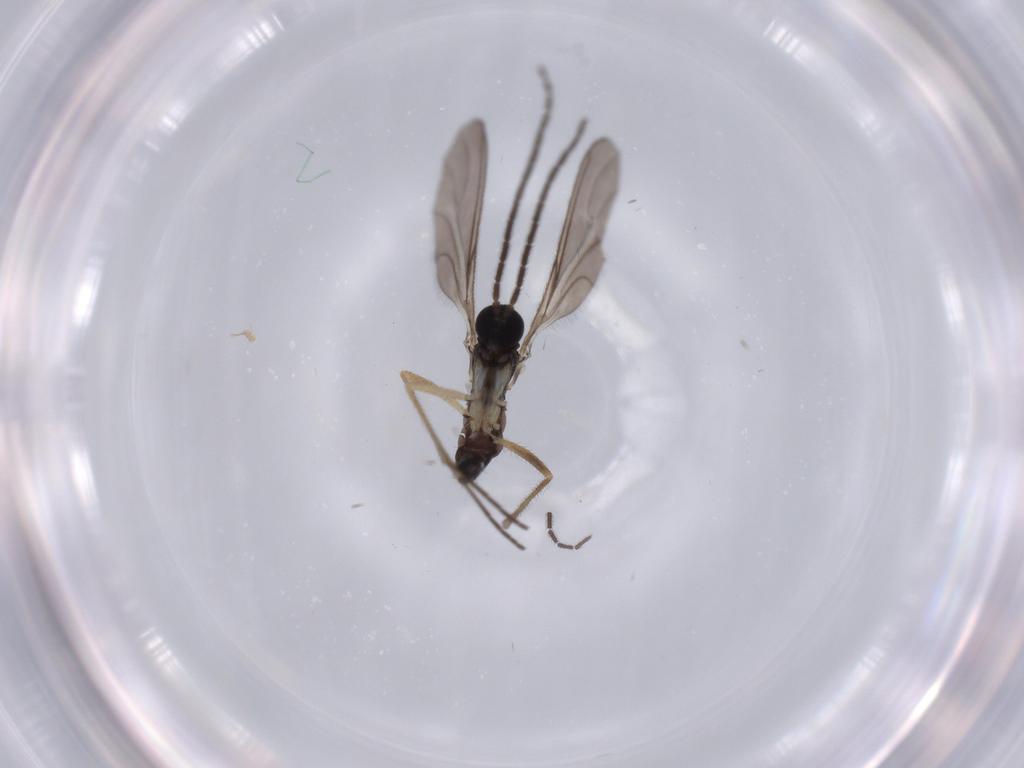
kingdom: Animalia
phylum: Arthropoda
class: Insecta
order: Diptera
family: Sciaridae
